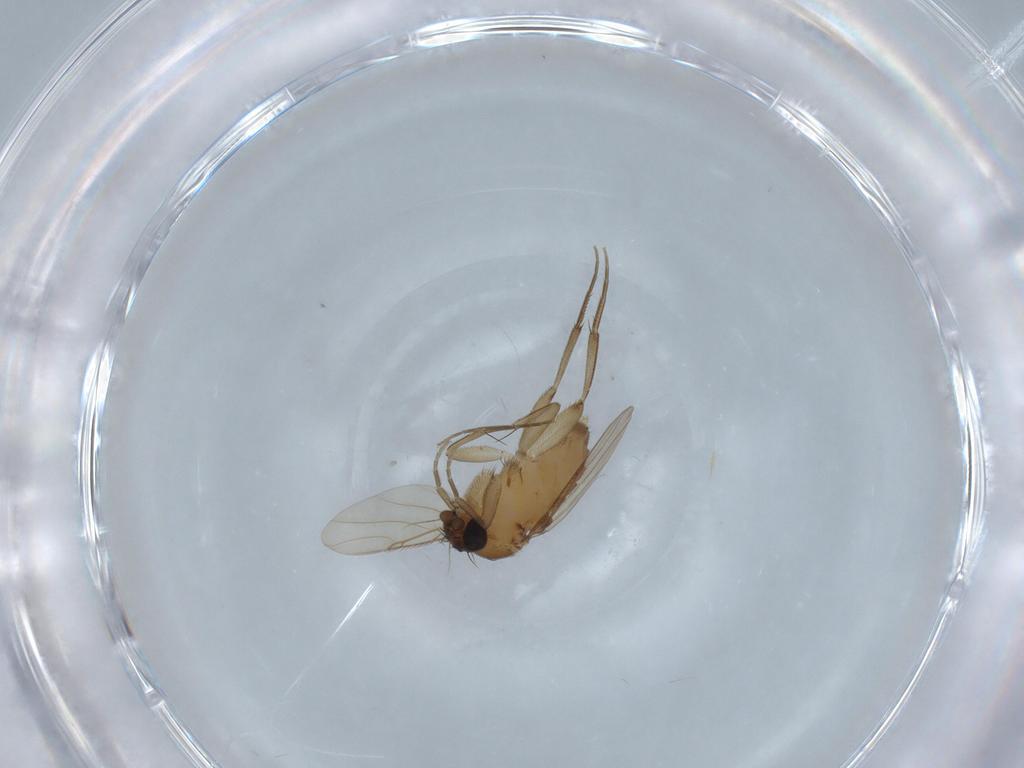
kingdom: Animalia
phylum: Arthropoda
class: Insecta
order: Diptera
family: Phoridae
